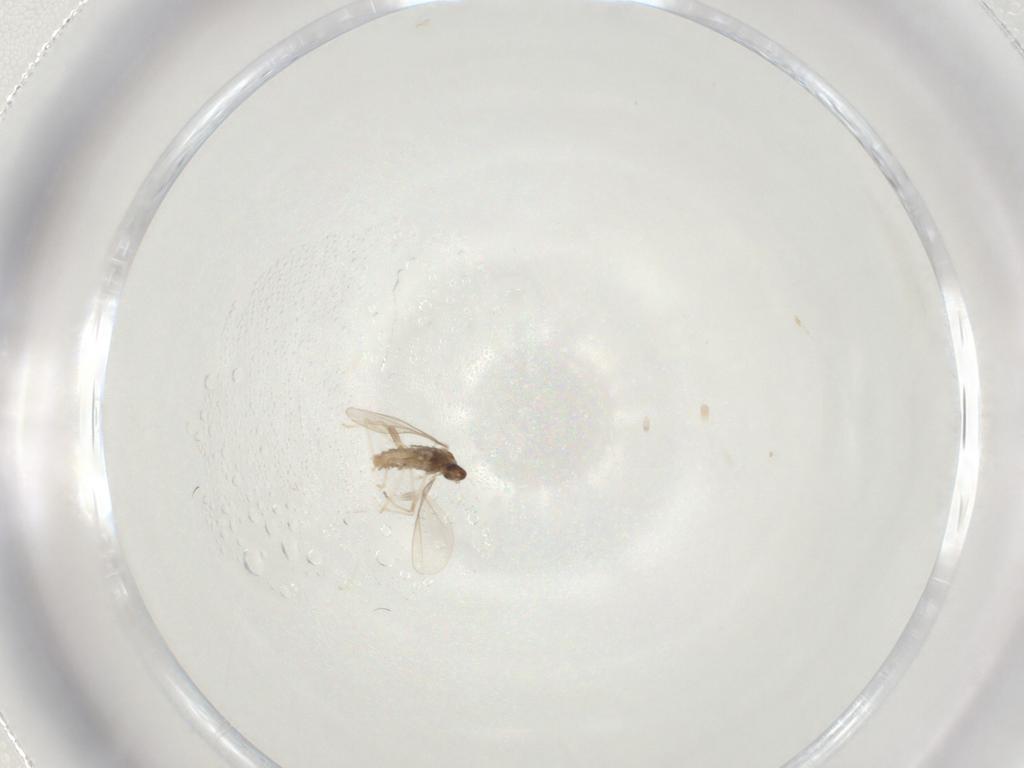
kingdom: Animalia
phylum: Arthropoda
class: Insecta
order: Diptera
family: Cecidomyiidae
